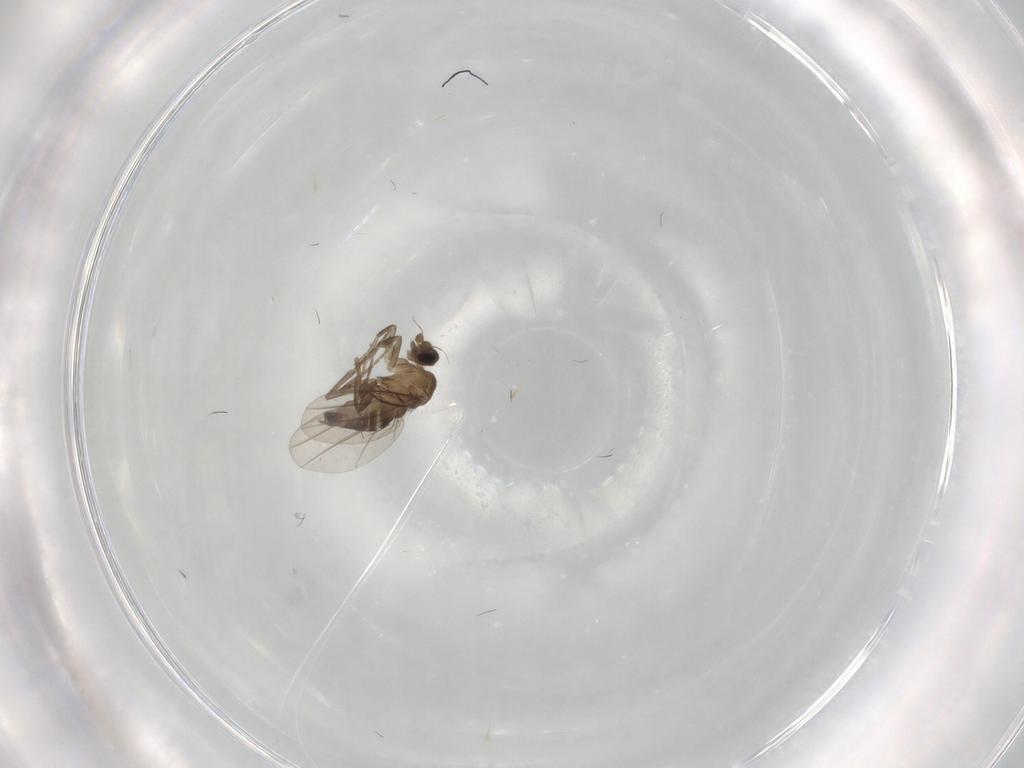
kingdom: Animalia
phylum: Arthropoda
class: Insecta
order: Diptera
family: Phoridae
